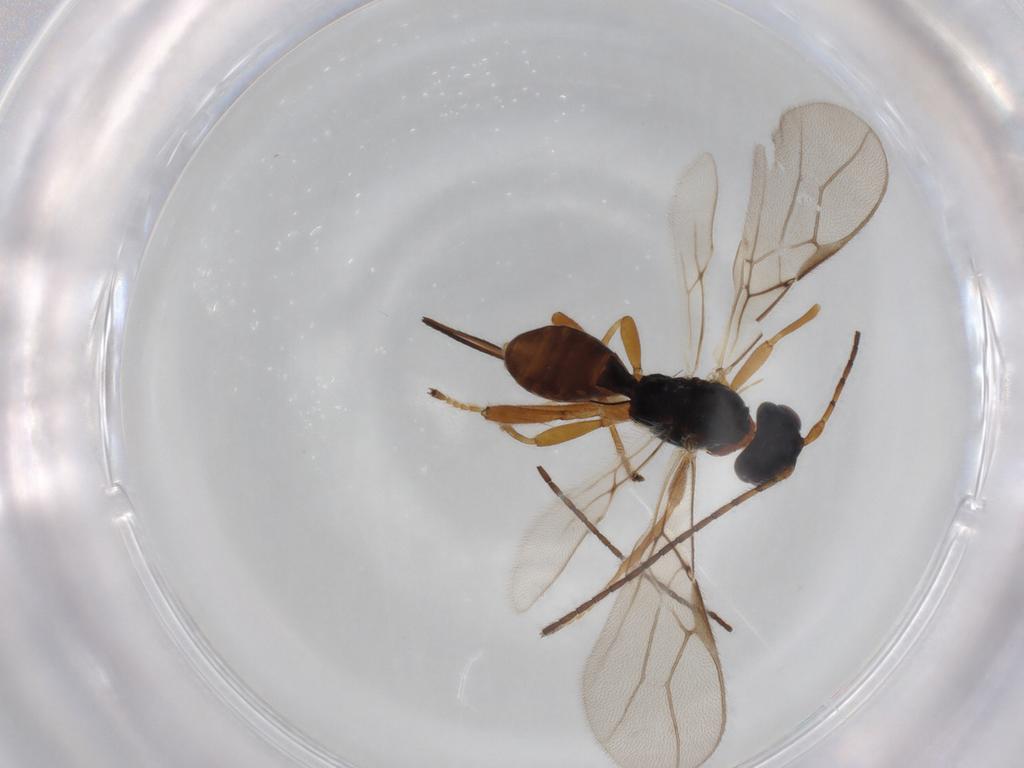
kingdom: Animalia
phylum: Arthropoda
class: Insecta
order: Hymenoptera
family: Braconidae
